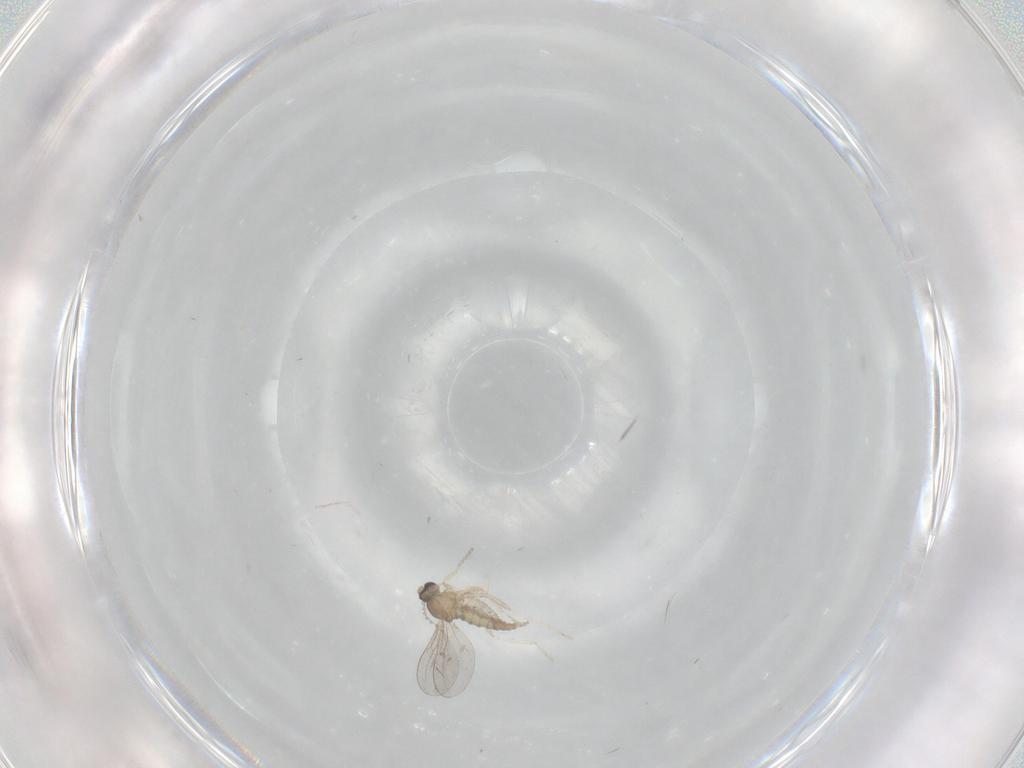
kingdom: Animalia
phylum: Arthropoda
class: Insecta
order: Diptera
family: Cecidomyiidae
